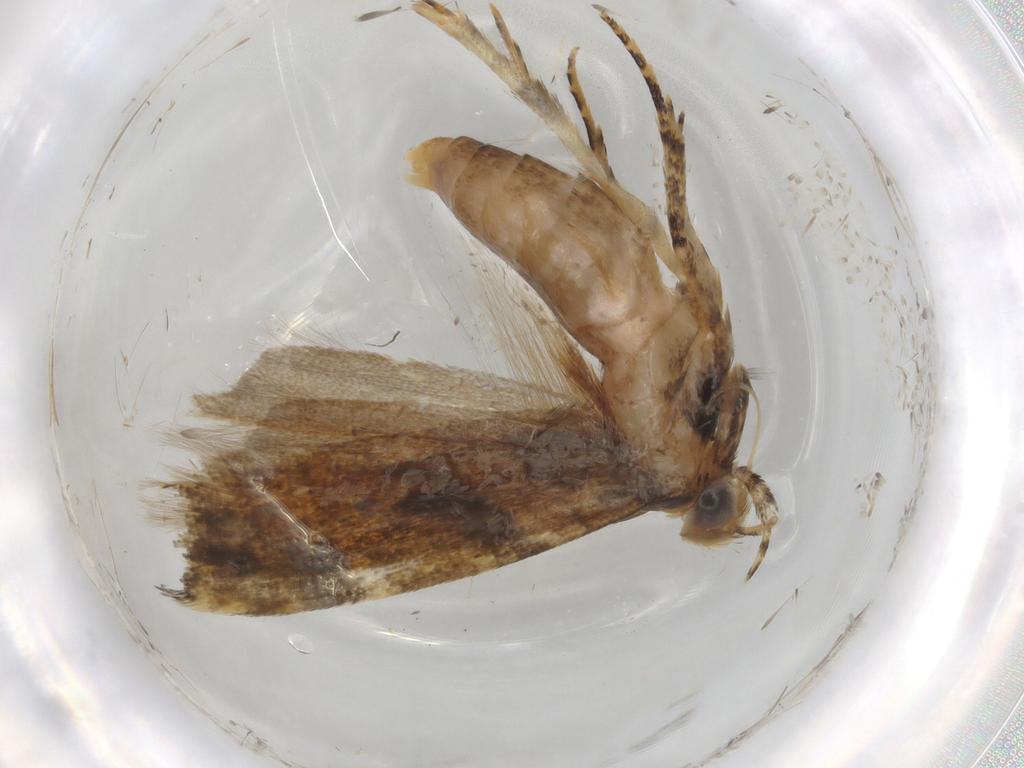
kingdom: Animalia
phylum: Arthropoda
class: Insecta
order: Lepidoptera
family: Gelechiidae
